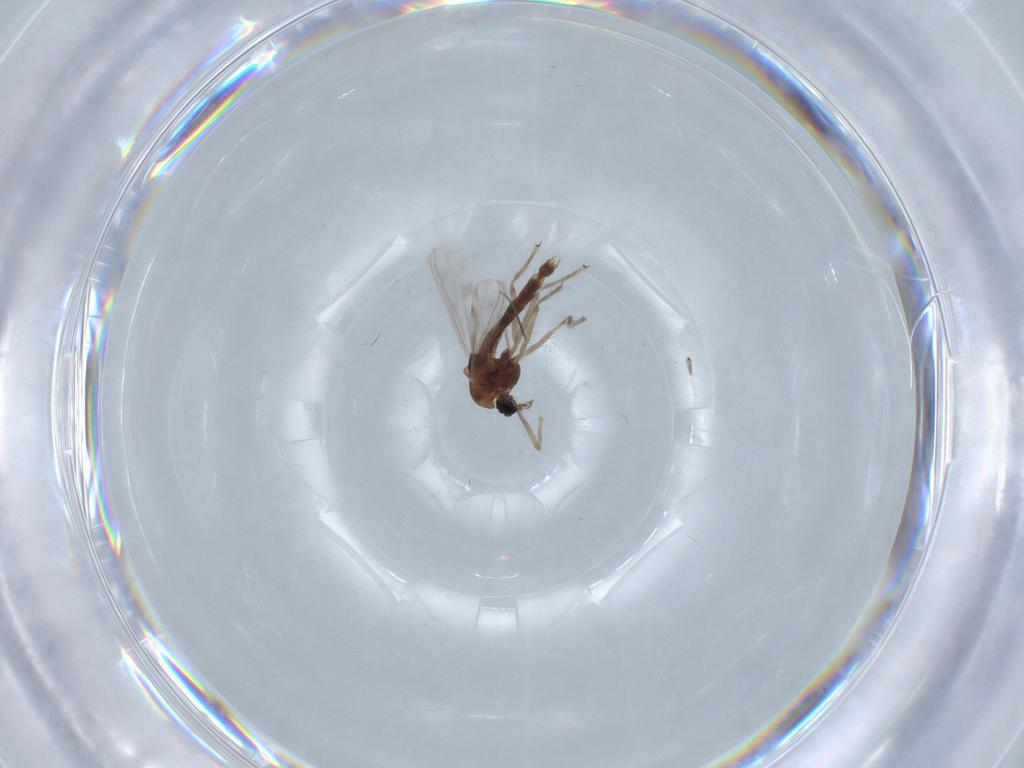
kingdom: Animalia
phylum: Arthropoda
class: Insecta
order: Diptera
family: Chironomidae
